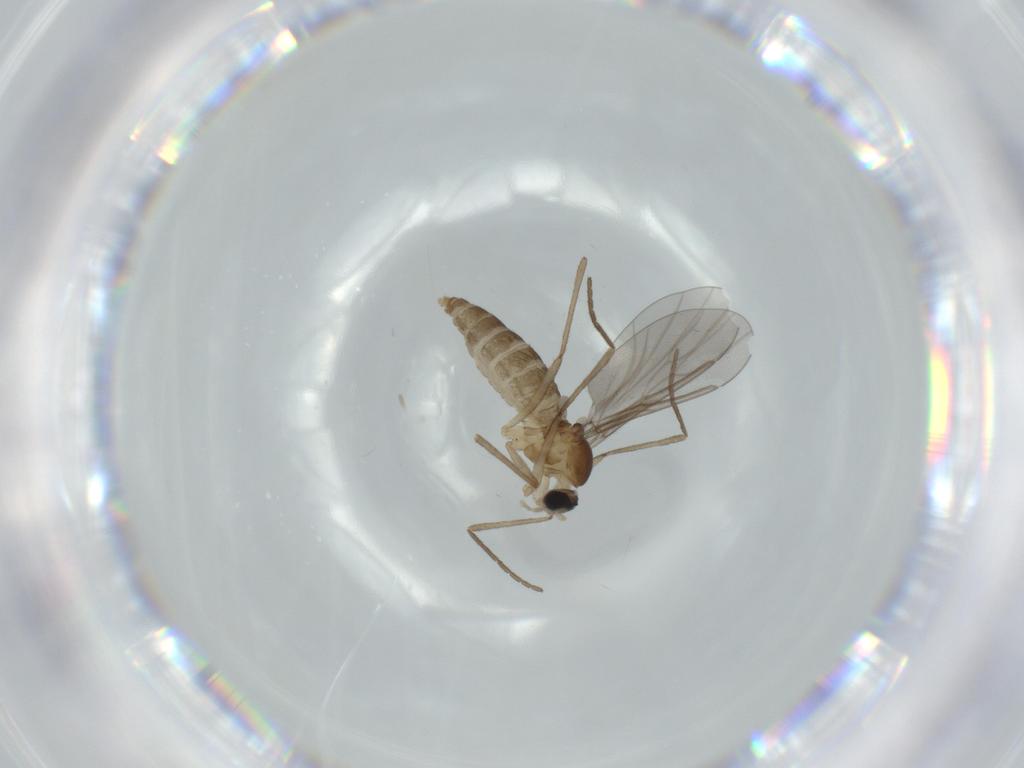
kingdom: Animalia
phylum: Arthropoda
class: Insecta
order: Diptera
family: Cecidomyiidae
